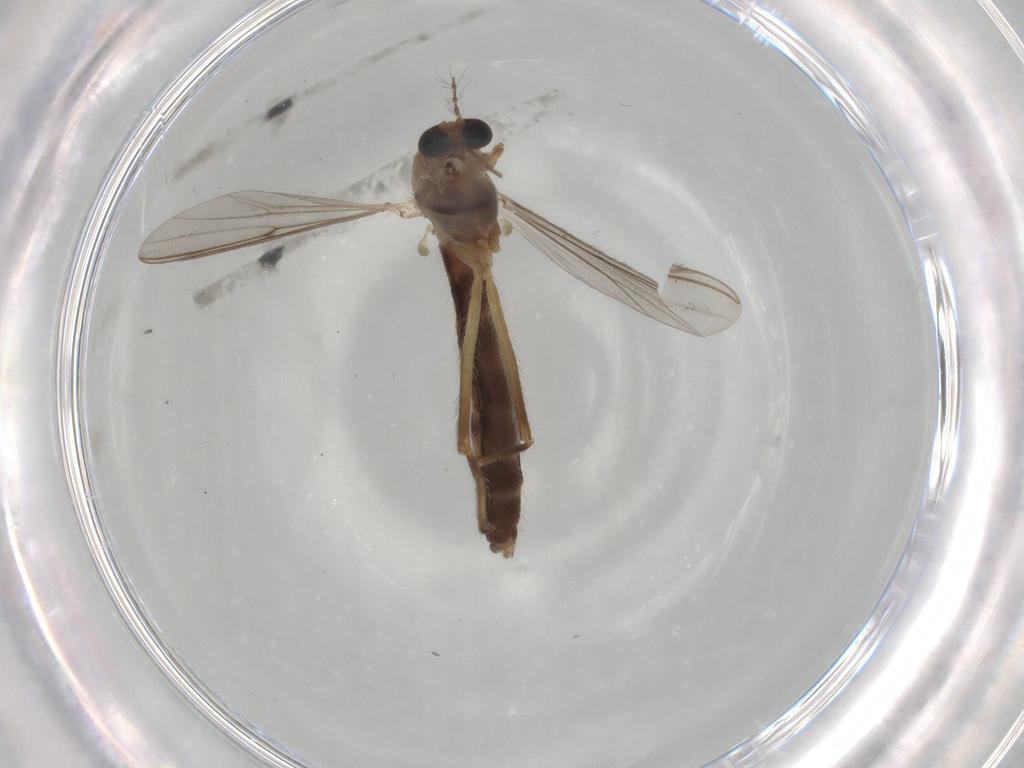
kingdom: Animalia
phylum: Arthropoda
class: Insecta
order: Diptera
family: Chironomidae
